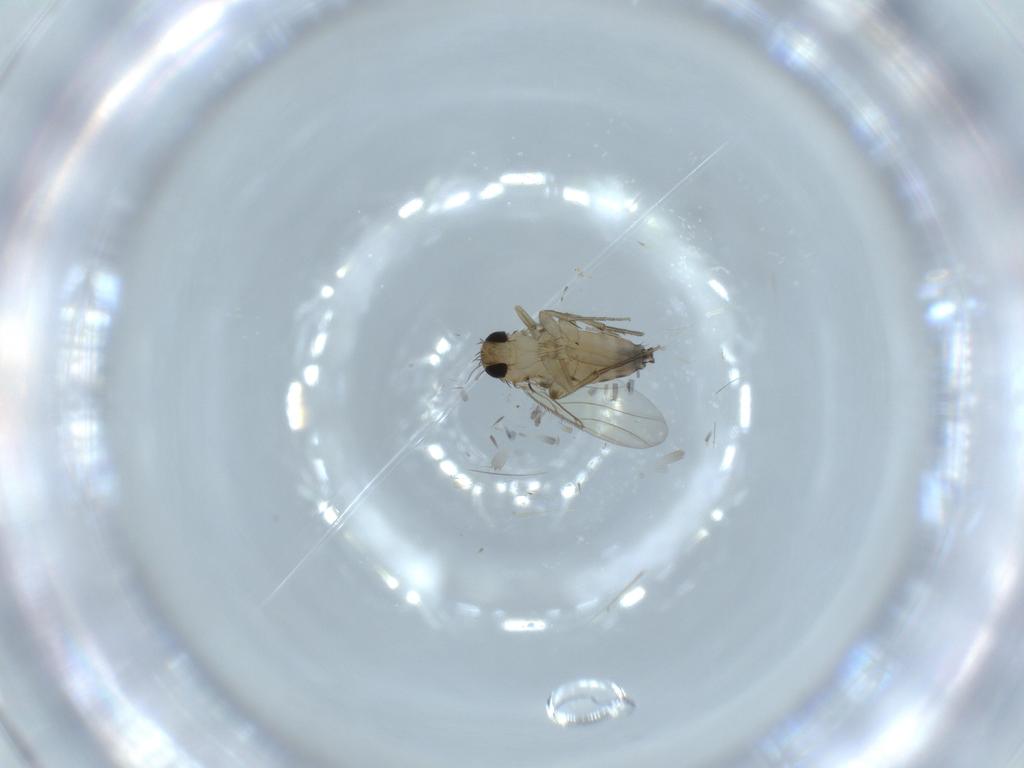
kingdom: Animalia
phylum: Arthropoda
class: Insecta
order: Diptera
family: Phoridae
